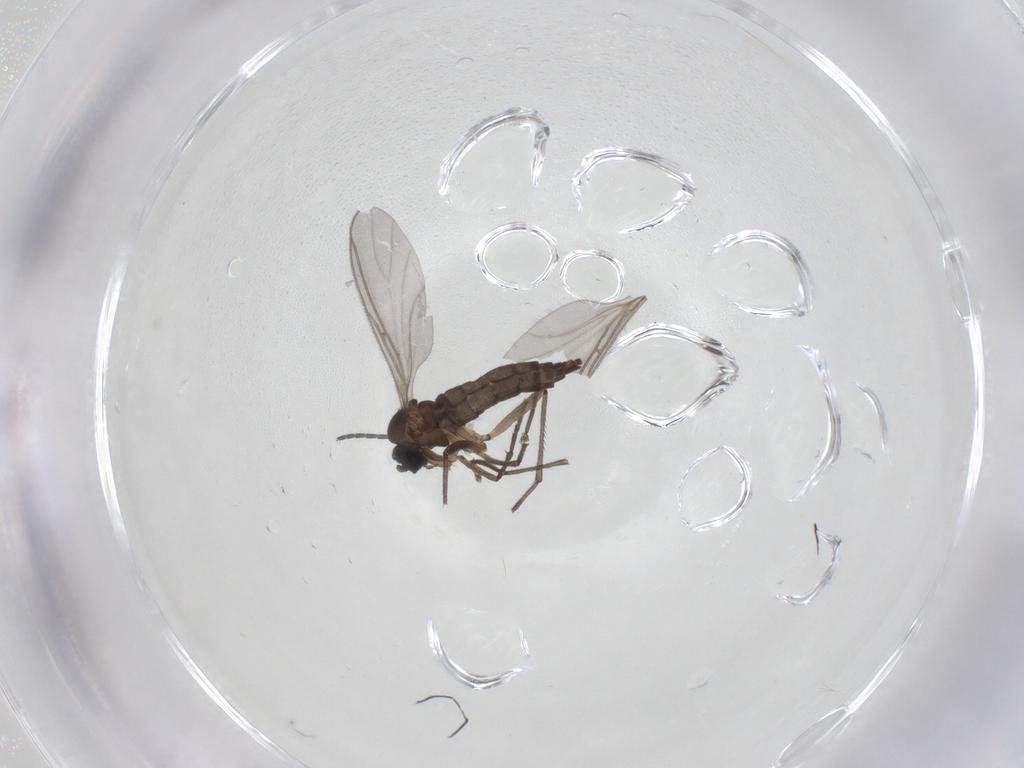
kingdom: Animalia
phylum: Arthropoda
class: Insecta
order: Diptera
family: Sciaridae
